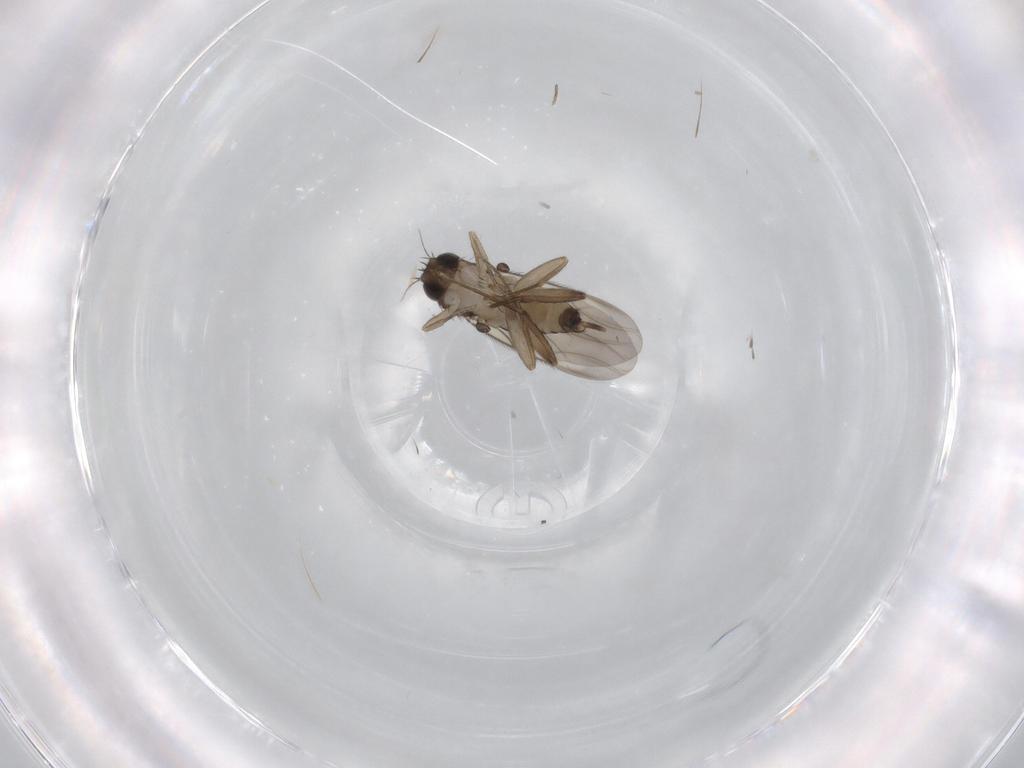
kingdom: Animalia
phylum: Arthropoda
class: Insecta
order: Diptera
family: Phoridae
